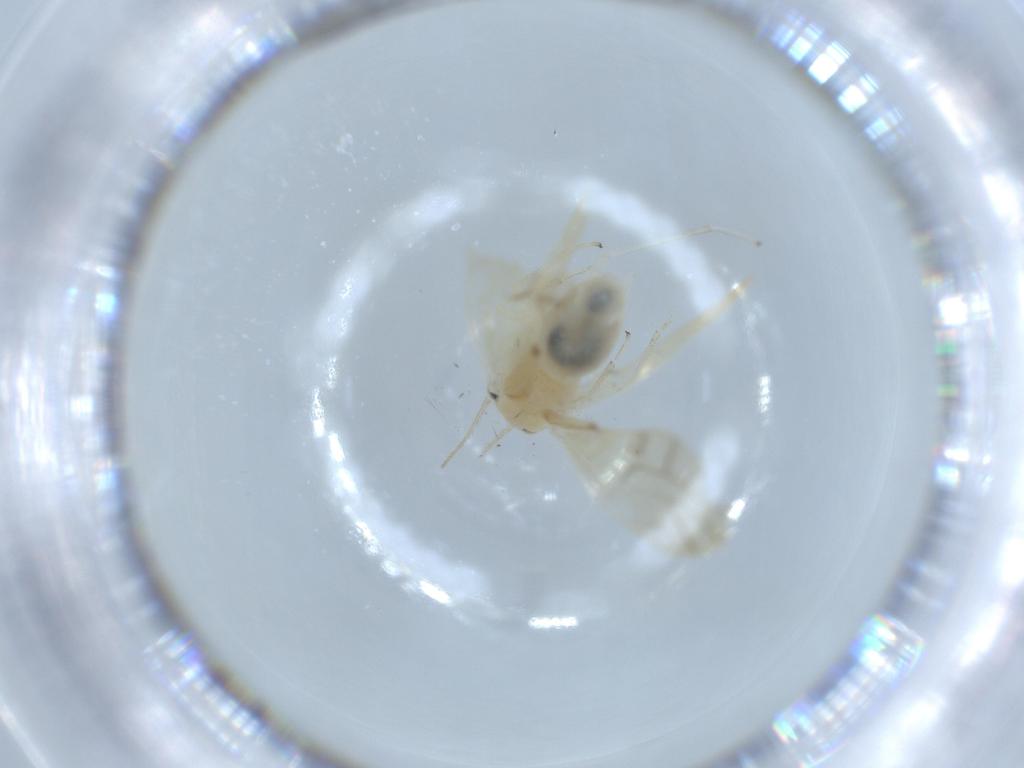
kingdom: Animalia
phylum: Arthropoda
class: Insecta
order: Psocodea
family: Caeciliusidae
